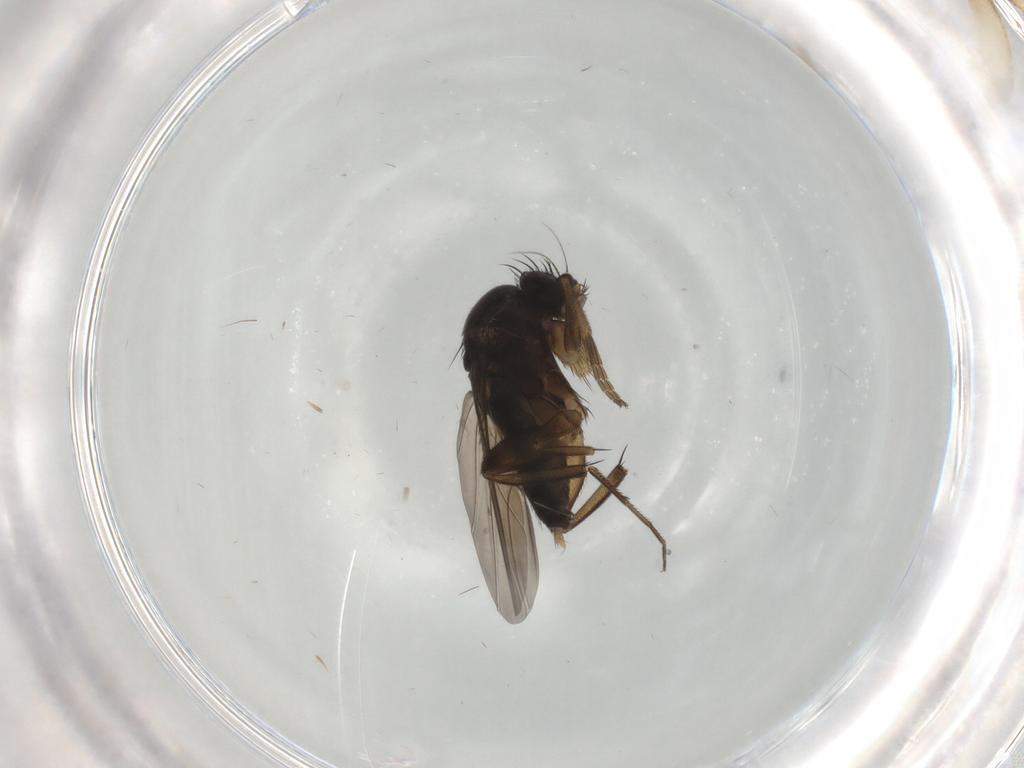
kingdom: Animalia
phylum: Arthropoda
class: Insecta
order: Diptera
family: Phoridae
